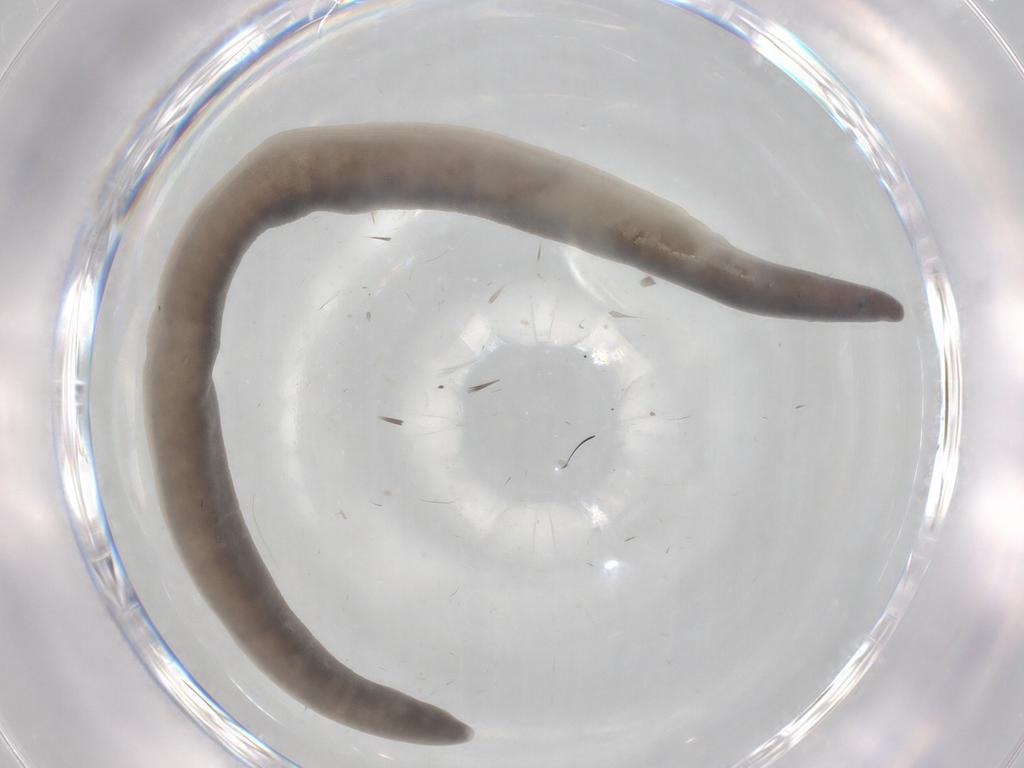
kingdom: Animalia
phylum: Arthropoda
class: Insecta
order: Diptera
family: Ceratopogonidae
